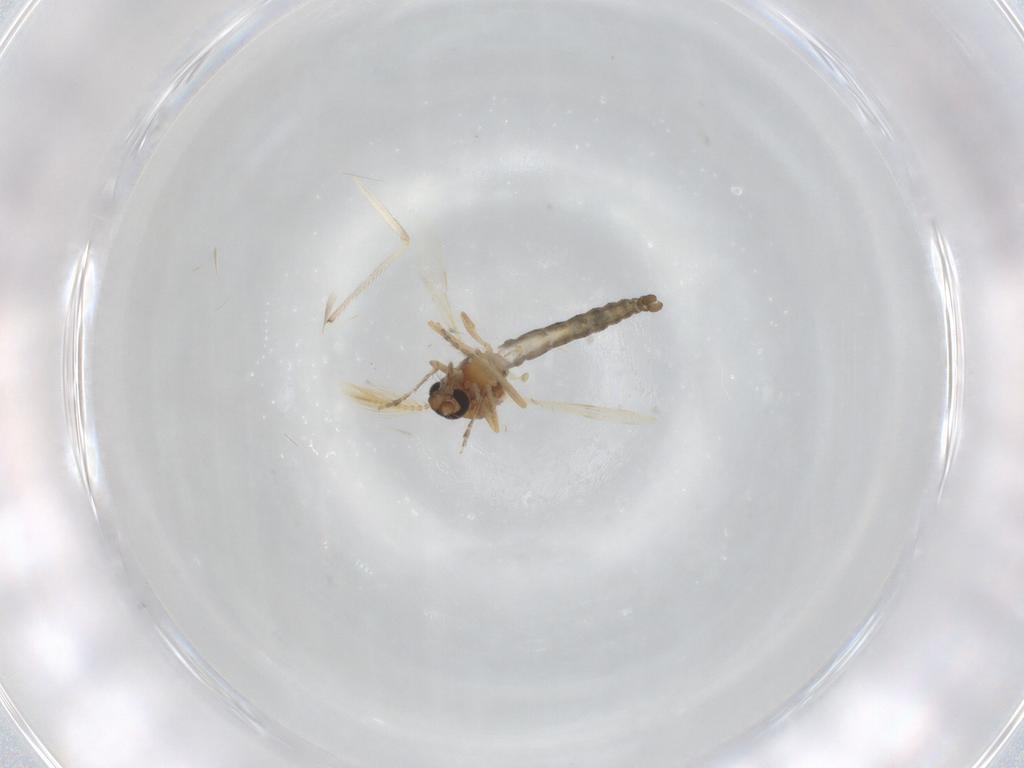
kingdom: Animalia
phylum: Arthropoda
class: Insecta
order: Diptera
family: Ceratopogonidae
